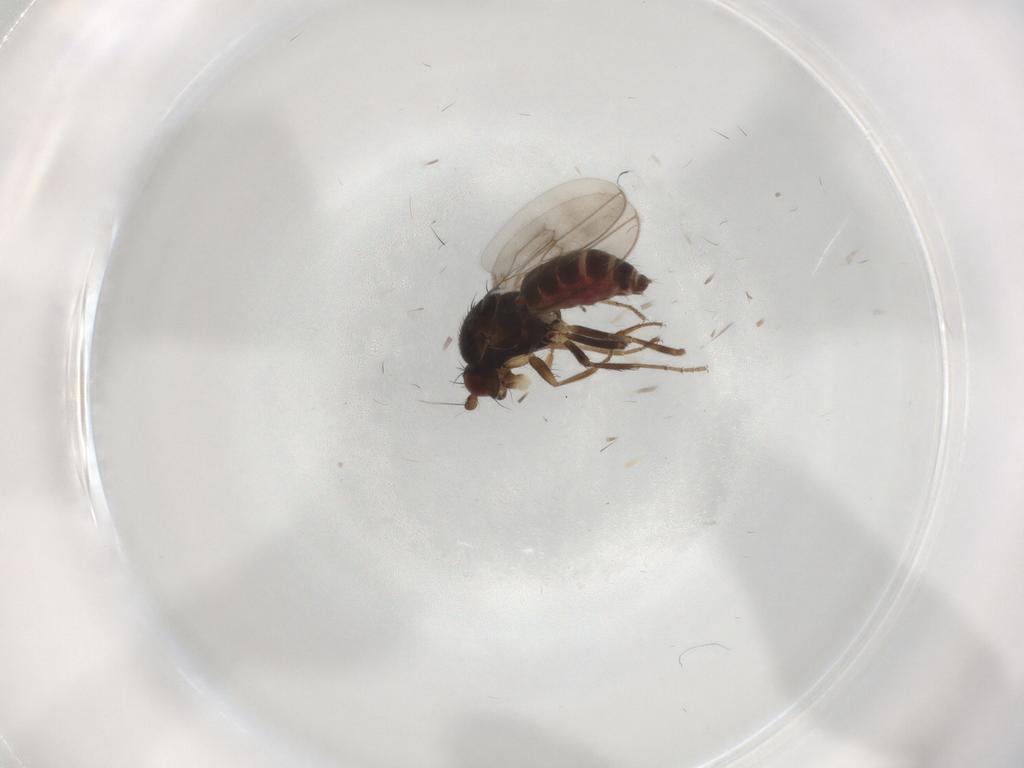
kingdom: Animalia
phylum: Arthropoda
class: Insecta
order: Diptera
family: Sphaeroceridae
